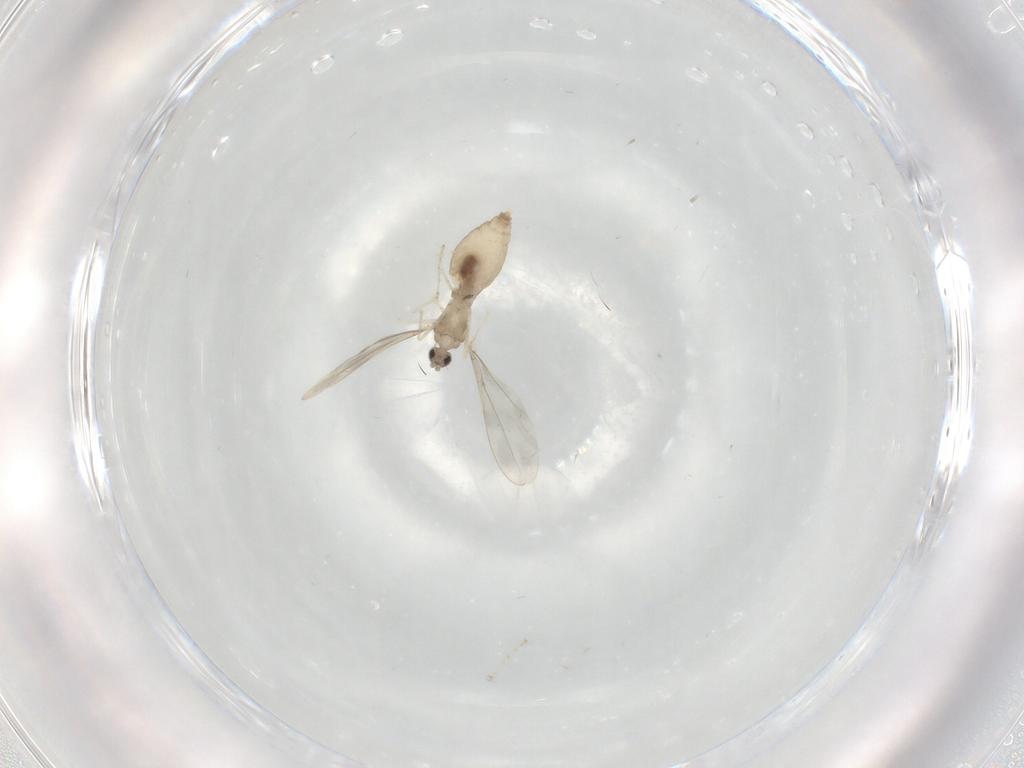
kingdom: Animalia
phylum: Arthropoda
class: Insecta
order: Diptera
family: Cecidomyiidae
